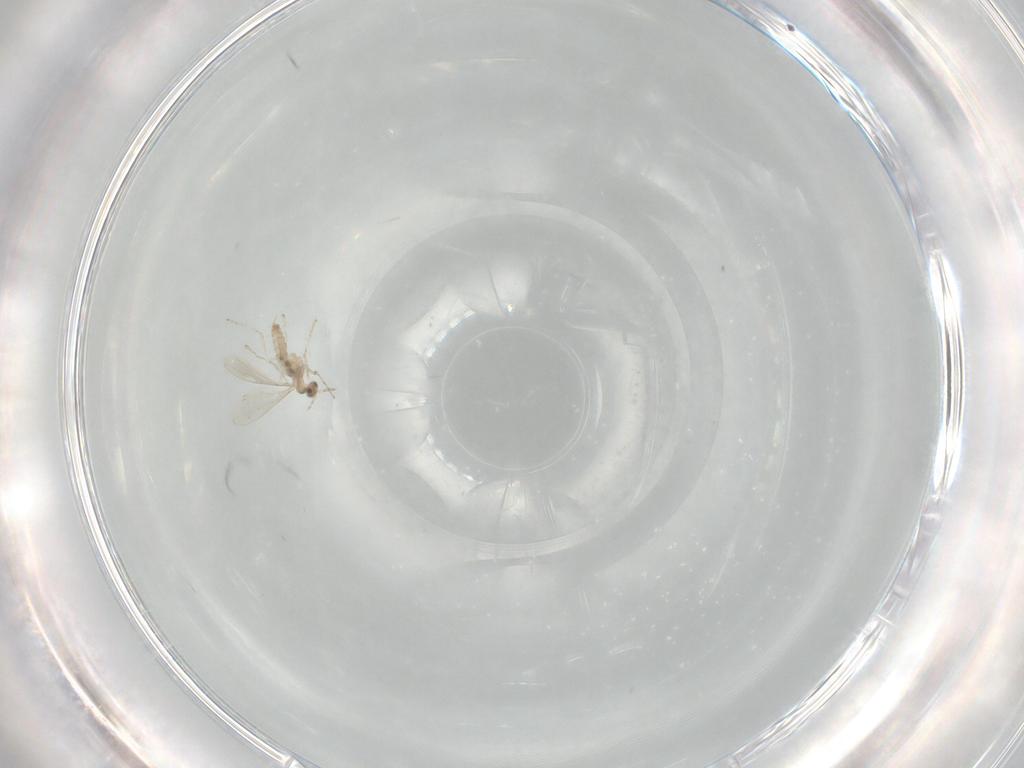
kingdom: Animalia
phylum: Arthropoda
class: Insecta
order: Diptera
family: Cecidomyiidae
